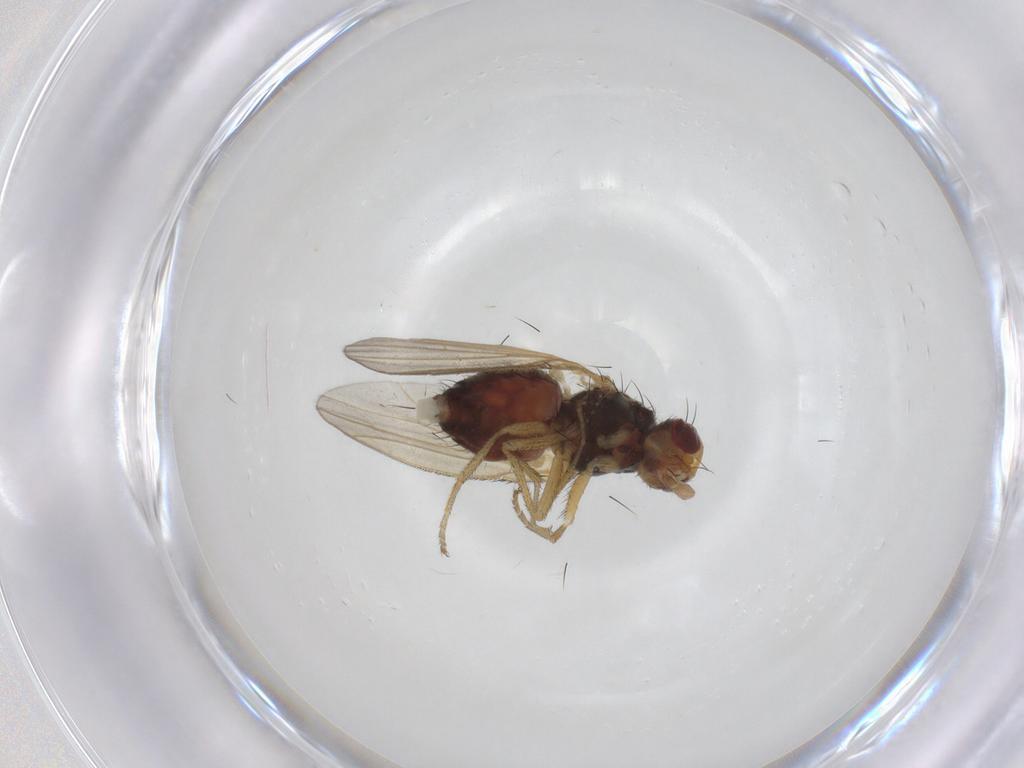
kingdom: Animalia
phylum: Arthropoda
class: Insecta
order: Diptera
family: Heleomyzidae
